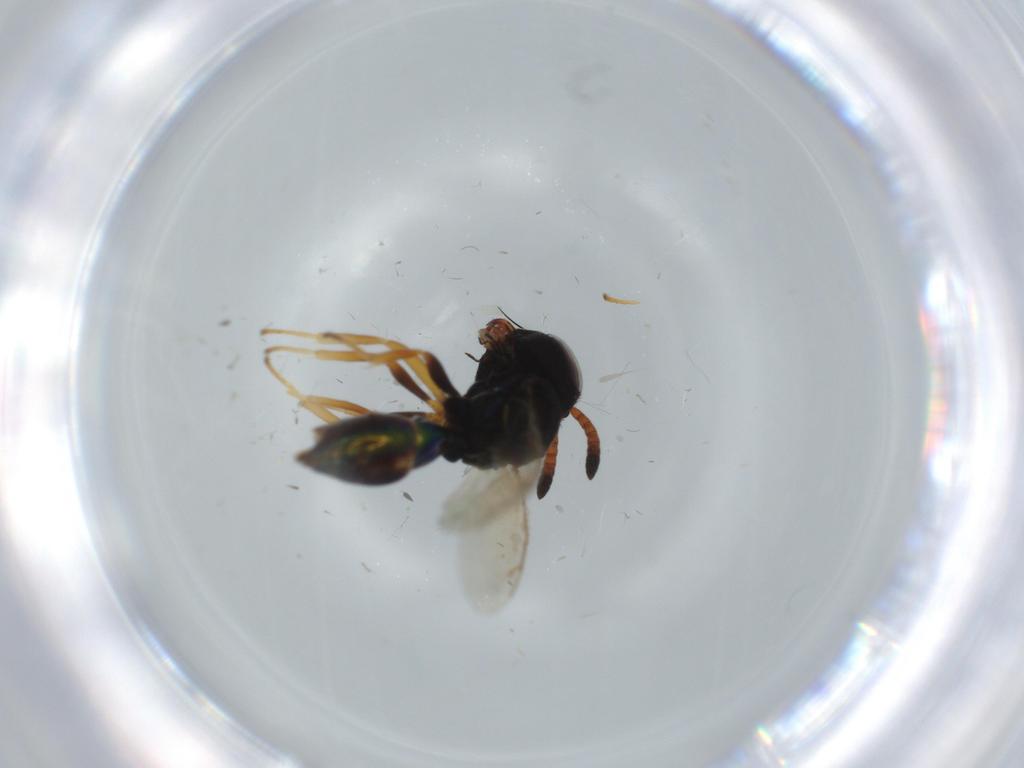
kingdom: Animalia
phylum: Arthropoda
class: Insecta
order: Hymenoptera
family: Pteromalidae
